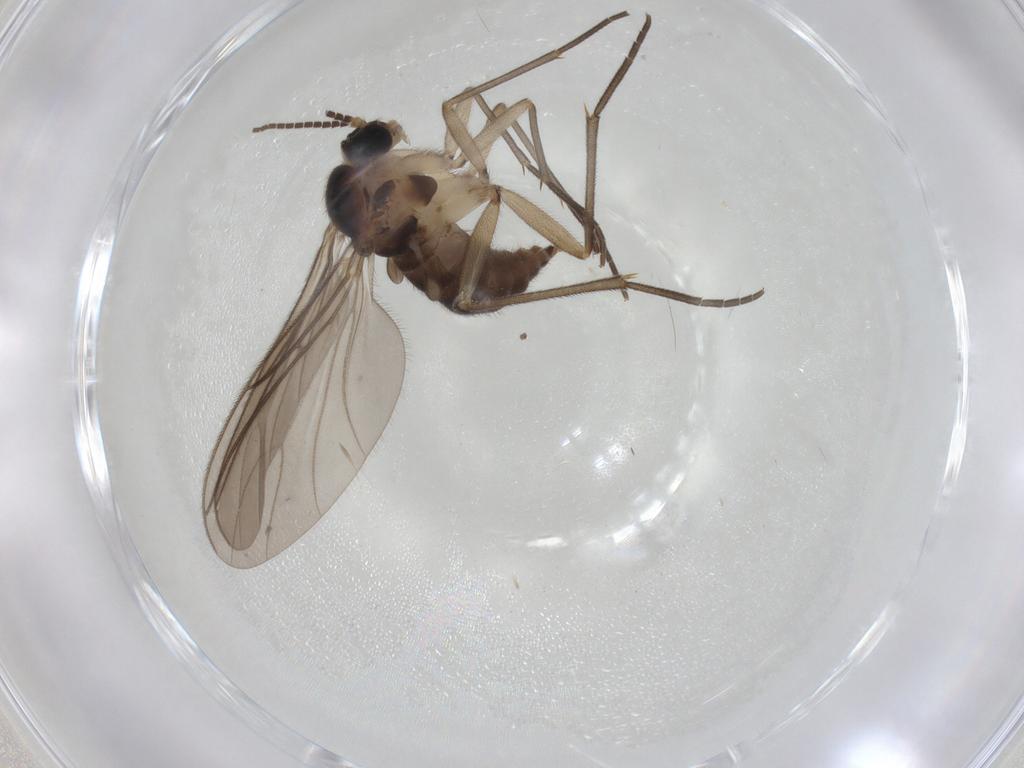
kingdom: Animalia
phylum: Arthropoda
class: Insecta
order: Diptera
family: Sciaridae
